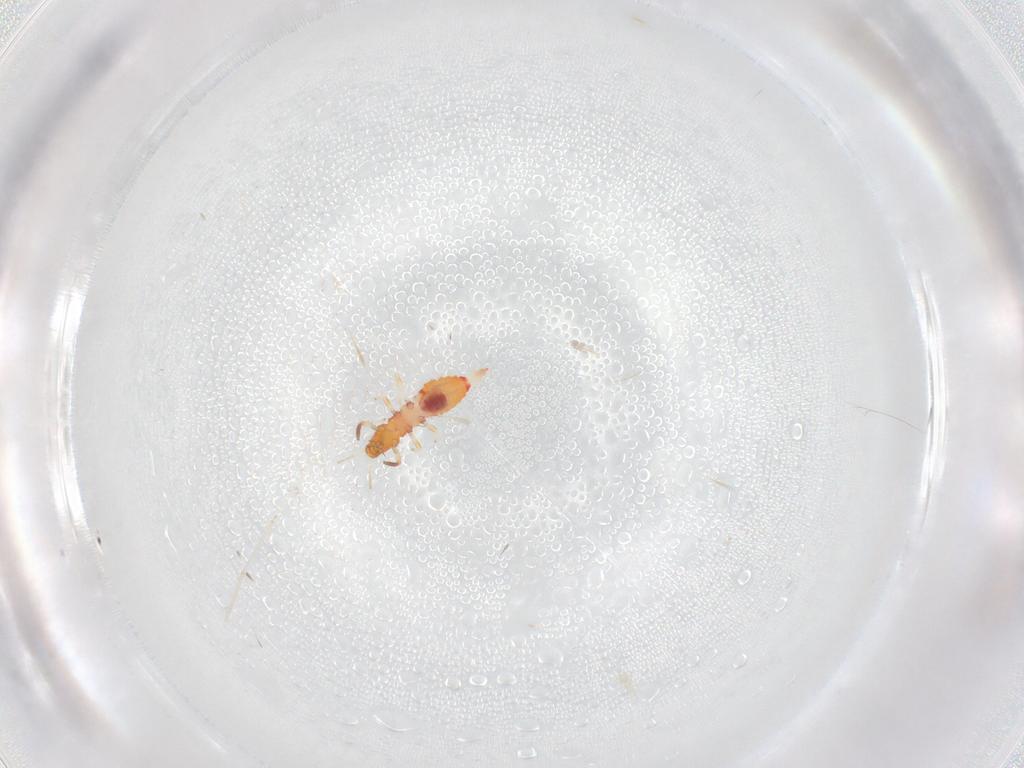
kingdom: Animalia
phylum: Arthropoda
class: Insecta
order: Thysanoptera
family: Aeolothripidae
